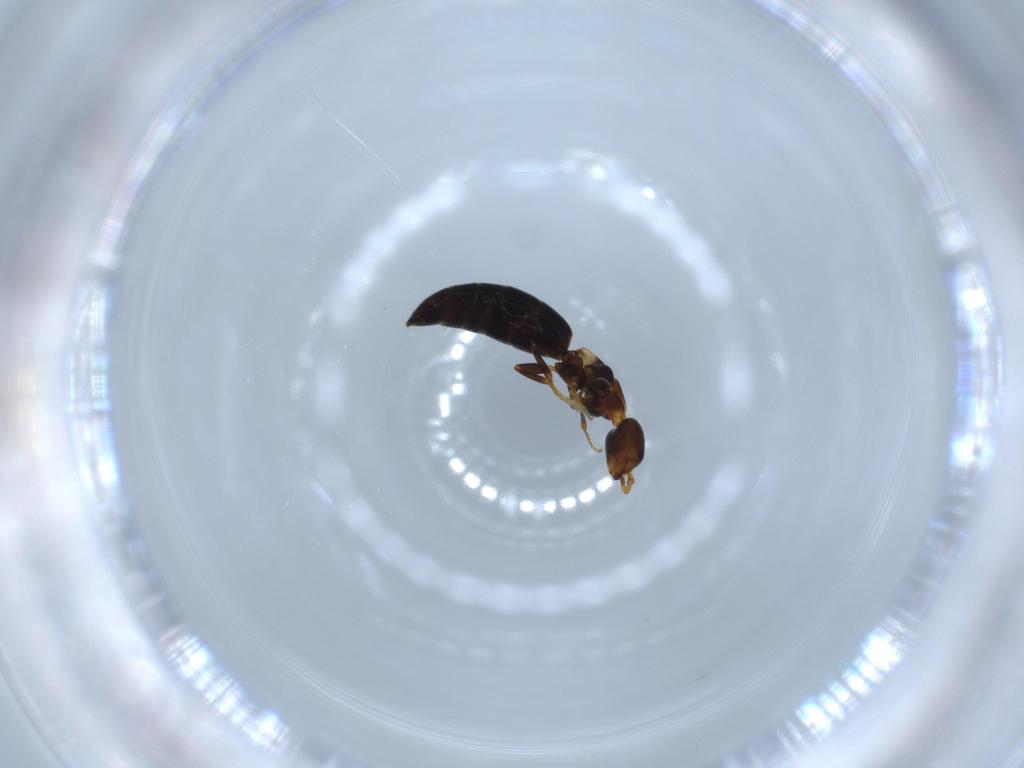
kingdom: Animalia
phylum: Arthropoda
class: Insecta
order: Hymenoptera
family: Bethylidae
